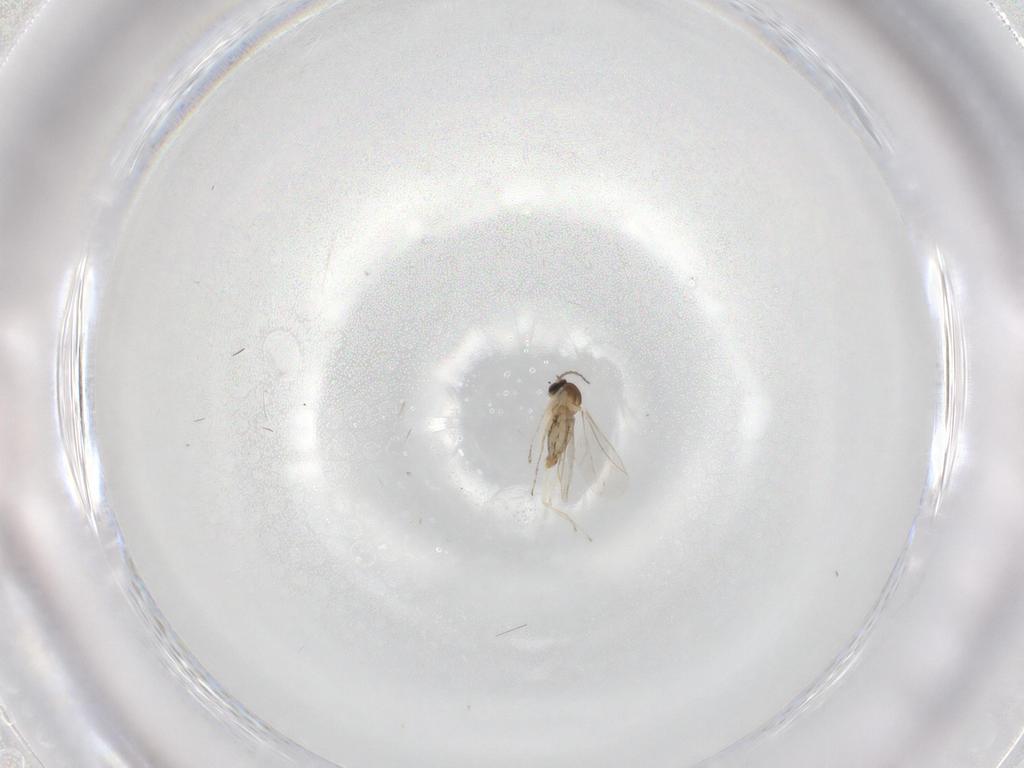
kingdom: Animalia
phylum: Arthropoda
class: Insecta
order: Diptera
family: Cecidomyiidae
